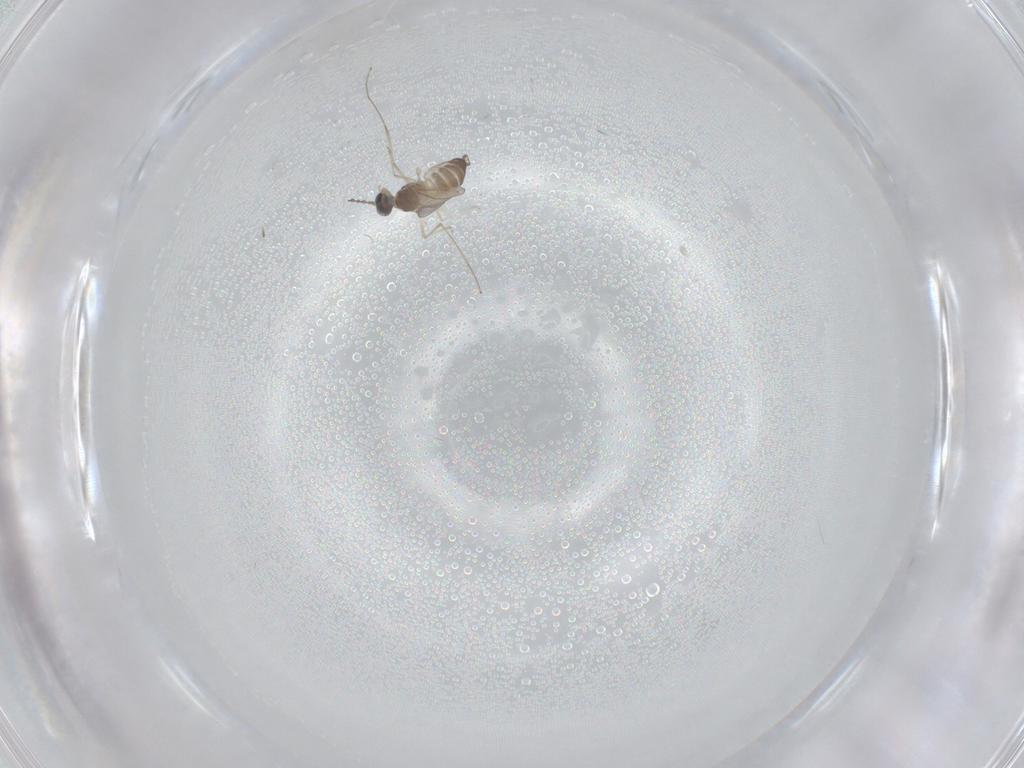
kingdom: Animalia
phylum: Arthropoda
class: Insecta
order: Diptera
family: Cecidomyiidae
